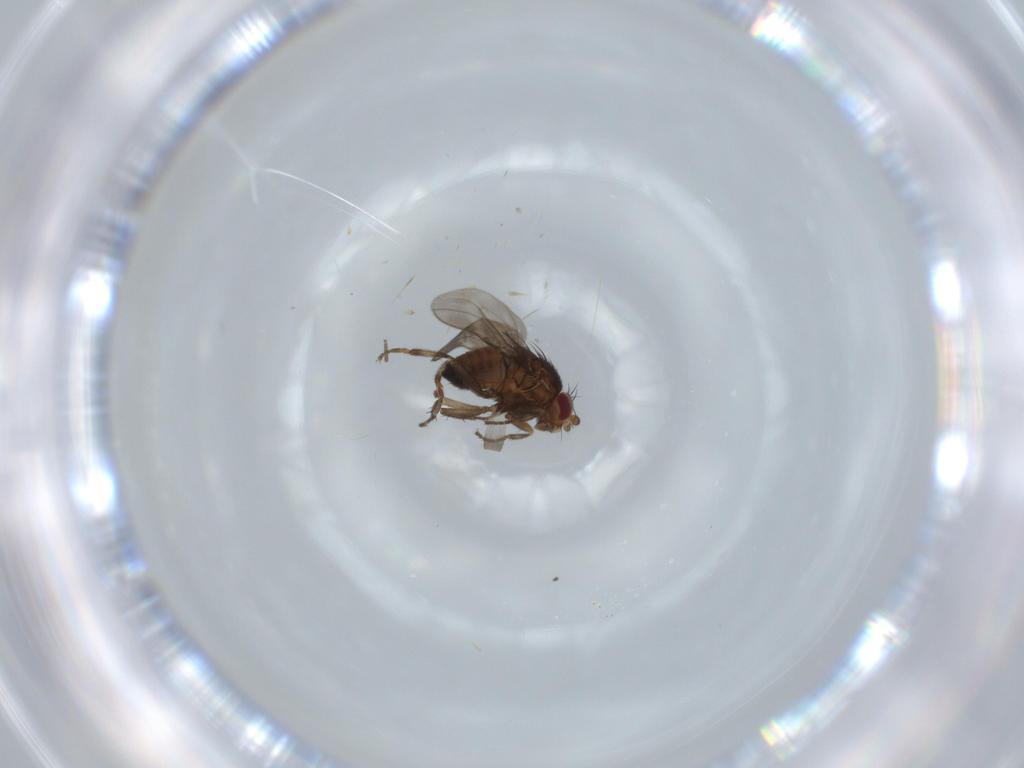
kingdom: Animalia
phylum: Arthropoda
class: Insecta
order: Diptera
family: Mycetophilidae
